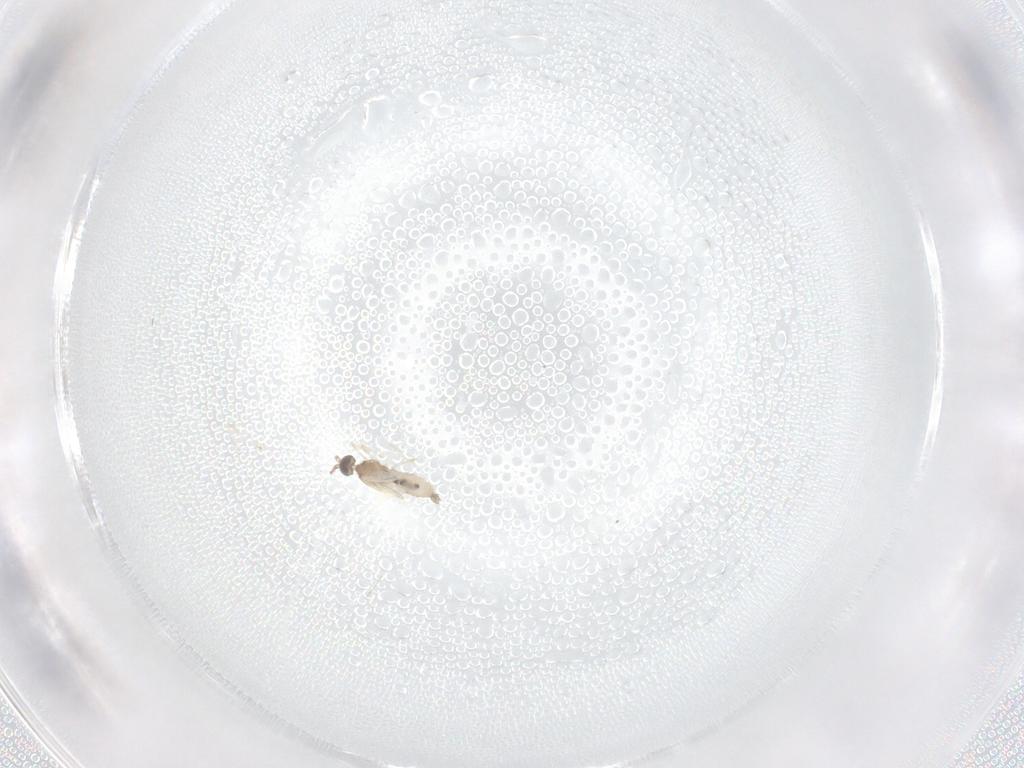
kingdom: Animalia
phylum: Arthropoda
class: Insecta
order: Diptera
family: Cecidomyiidae
